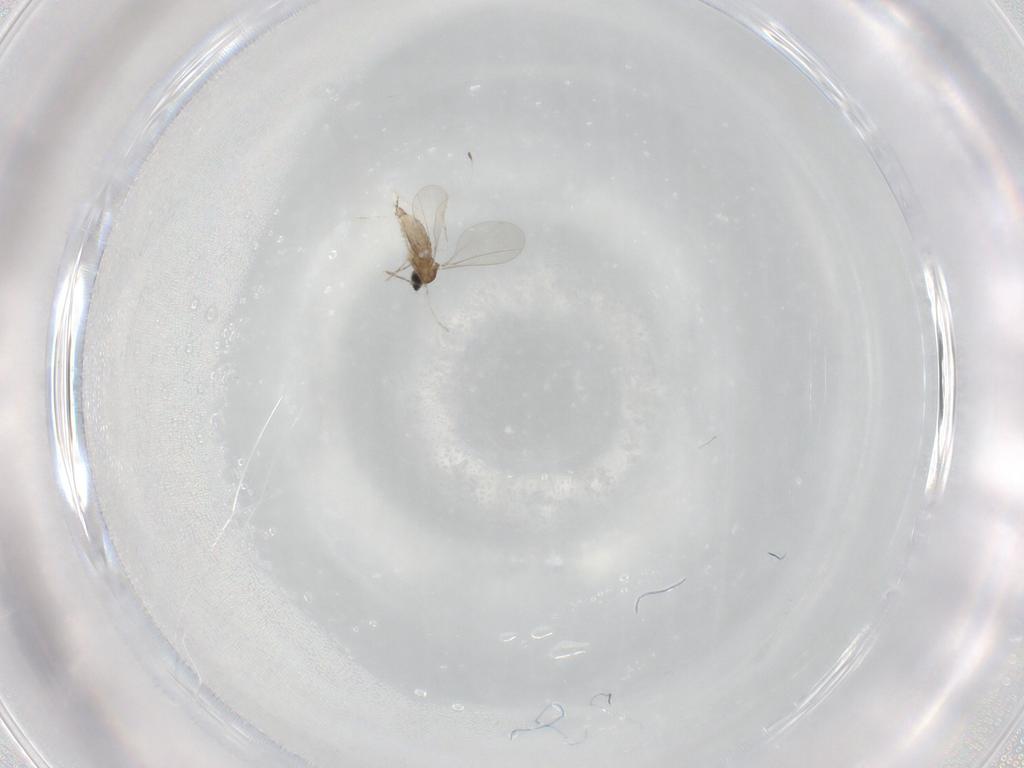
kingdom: Animalia
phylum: Arthropoda
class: Insecta
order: Diptera
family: Cecidomyiidae
